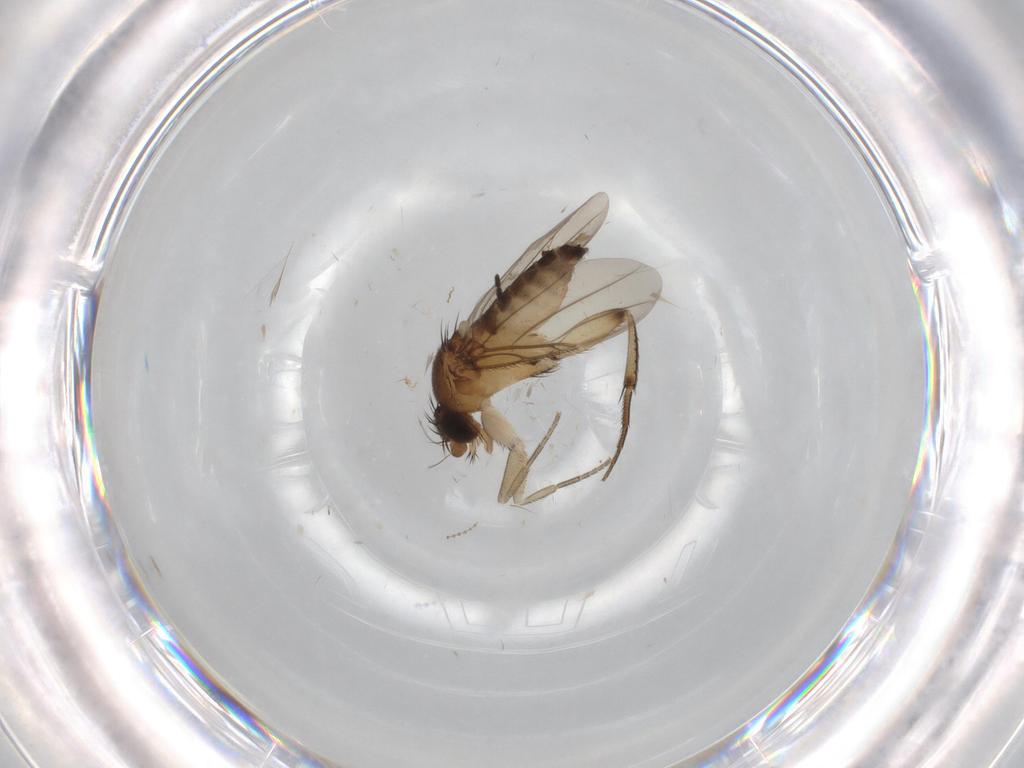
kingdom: Animalia
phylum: Arthropoda
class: Insecta
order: Diptera
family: Cecidomyiidae
